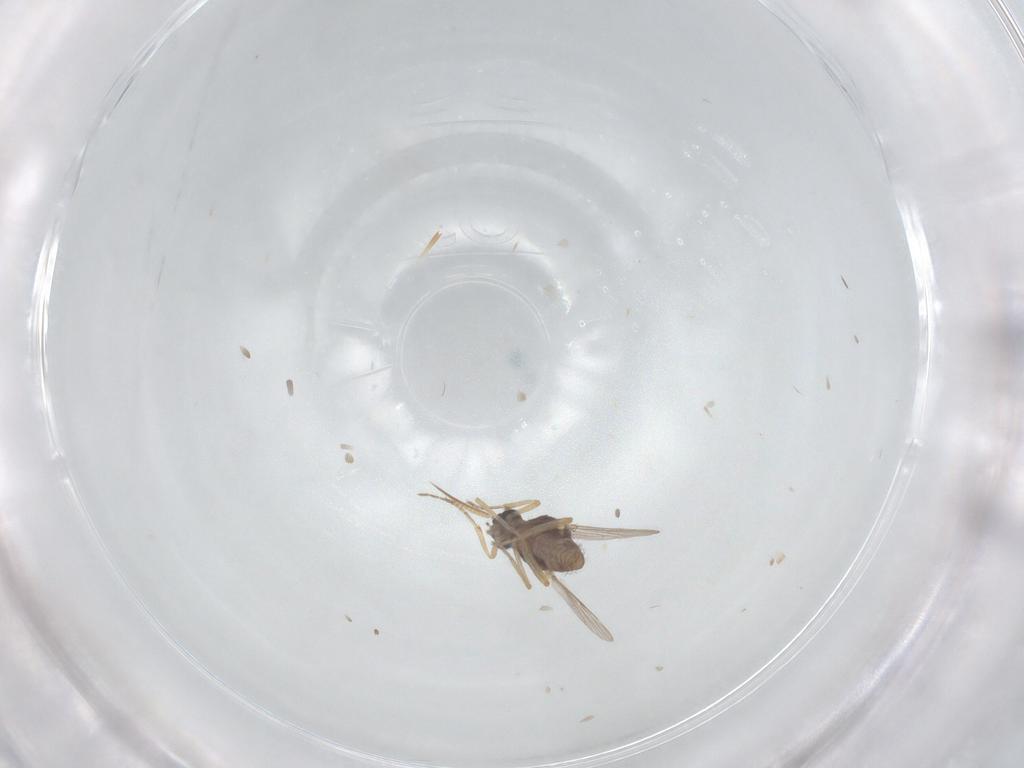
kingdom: Animalia
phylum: Arthropoda
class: Insecta
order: Diptera
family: Ceratopogonidae
